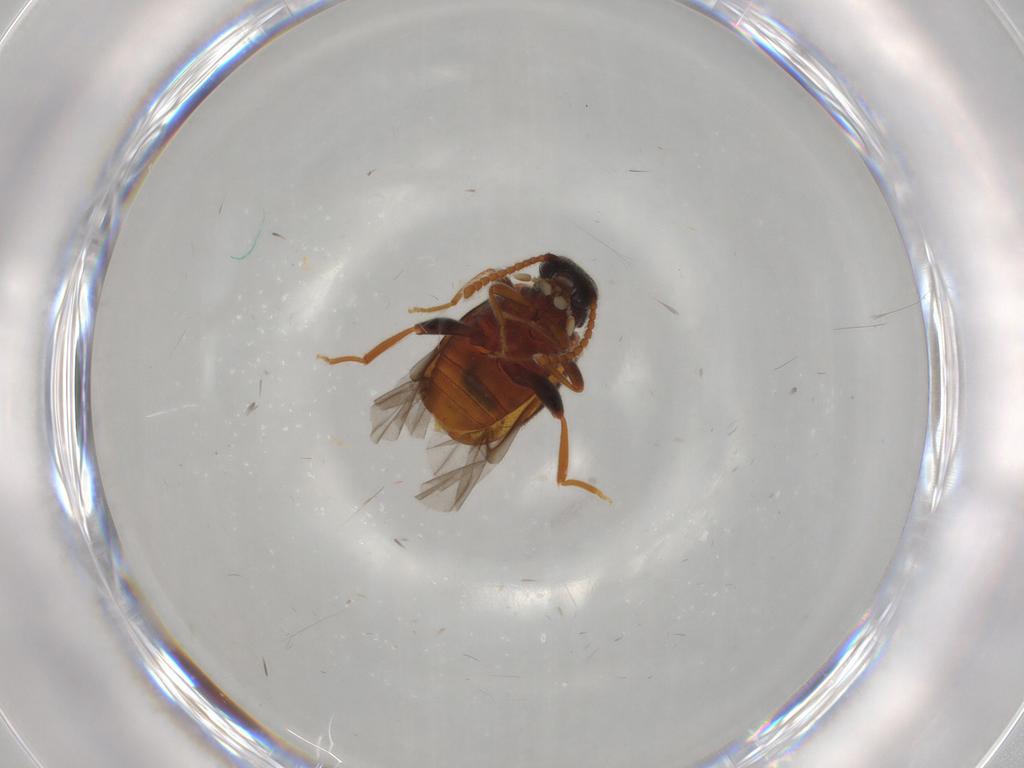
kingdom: Animalia
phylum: Arthropoda
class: Insecta
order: Coleoptera
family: Aderidae
